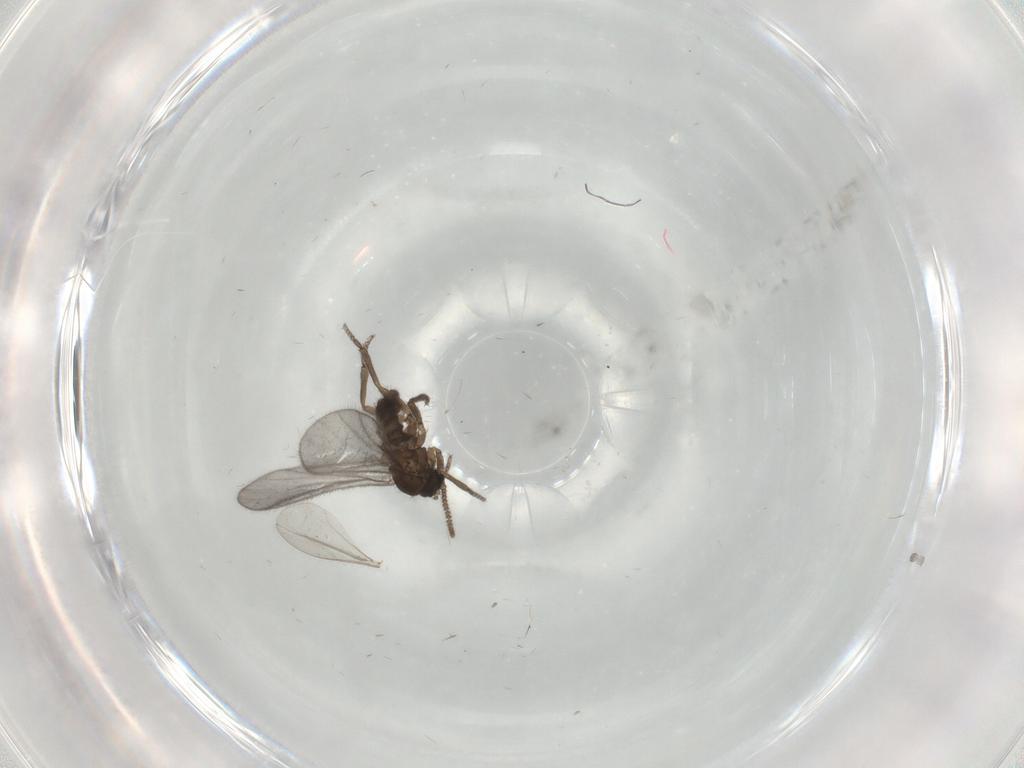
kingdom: Animalia
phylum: Arthropoda
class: Insecta
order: Diptera
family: Sciaridae
